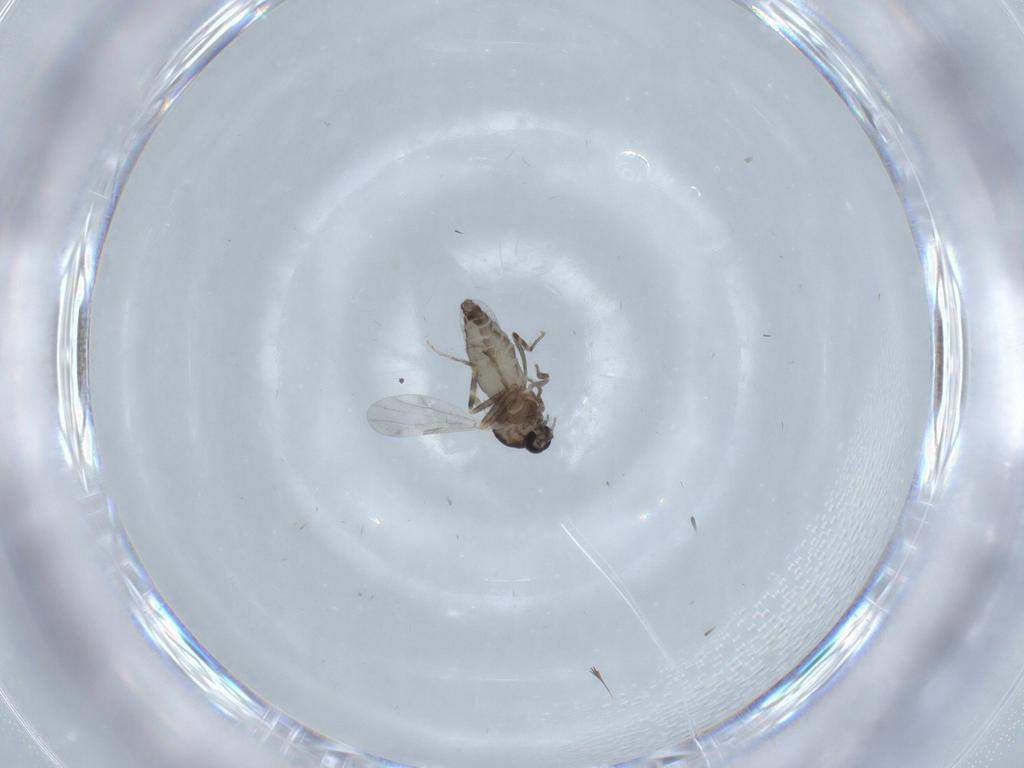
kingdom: Animalia
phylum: Arthropoda
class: Insecta
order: Diptera
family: Ceratopogonidae
